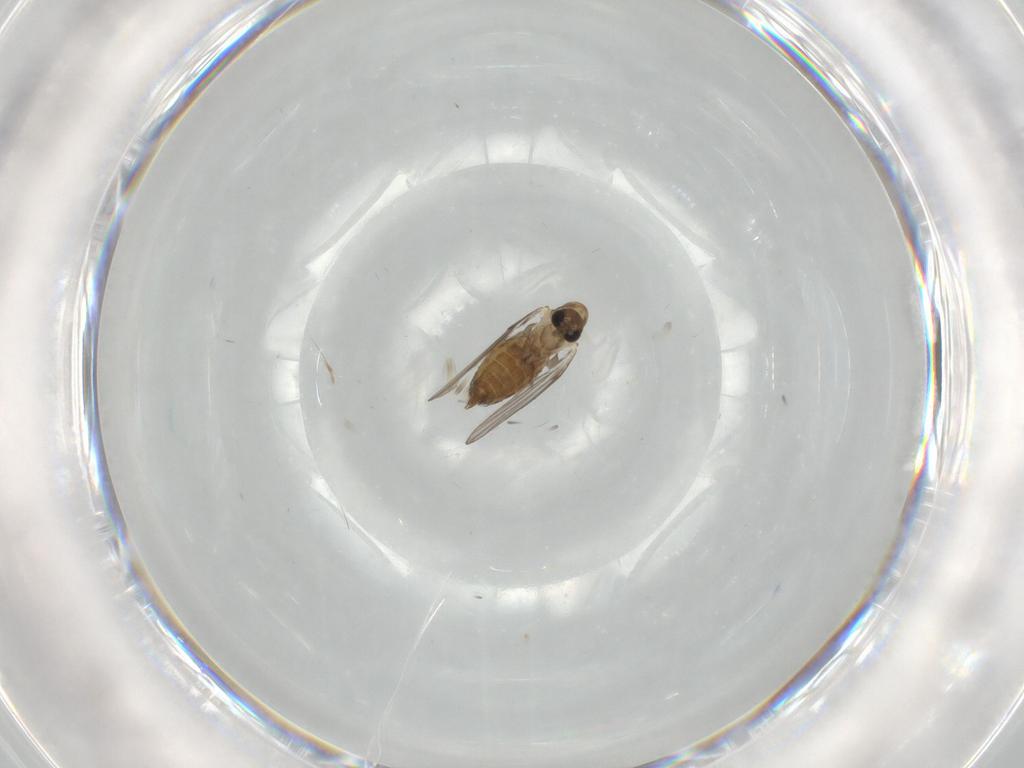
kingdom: Animalia
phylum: Arthropoda
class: Insecta
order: Diptera
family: Psychodidae
